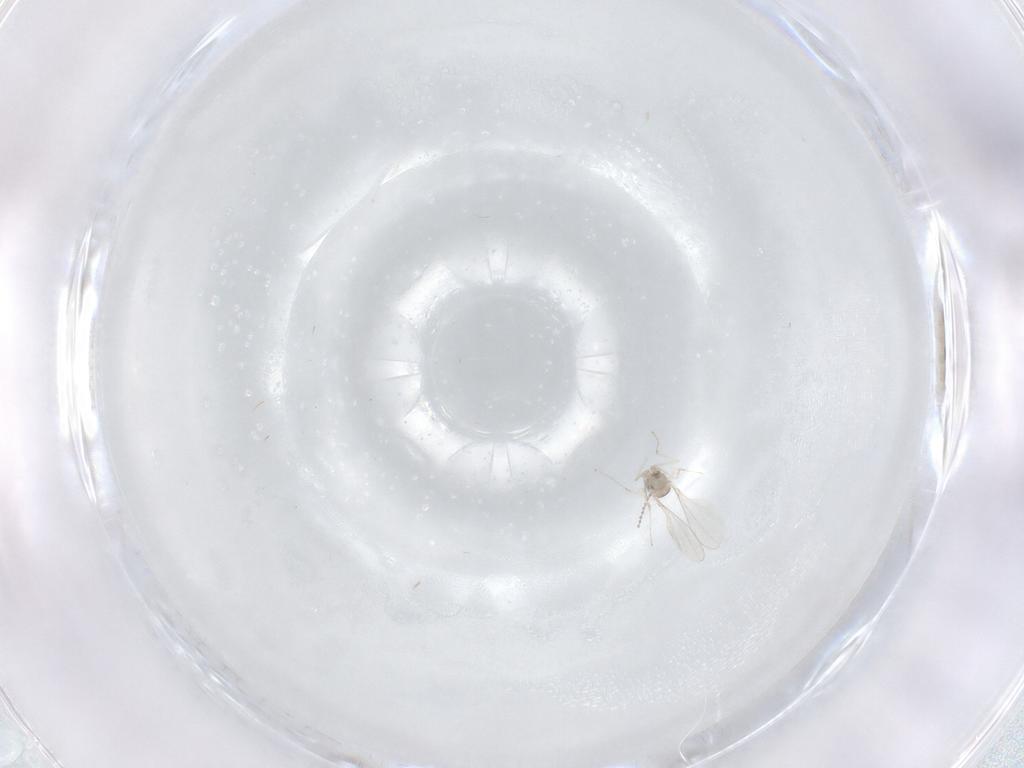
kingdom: Animalia
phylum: Arthropoda
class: Insecta
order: Diptera
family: Cecidomyiidae
